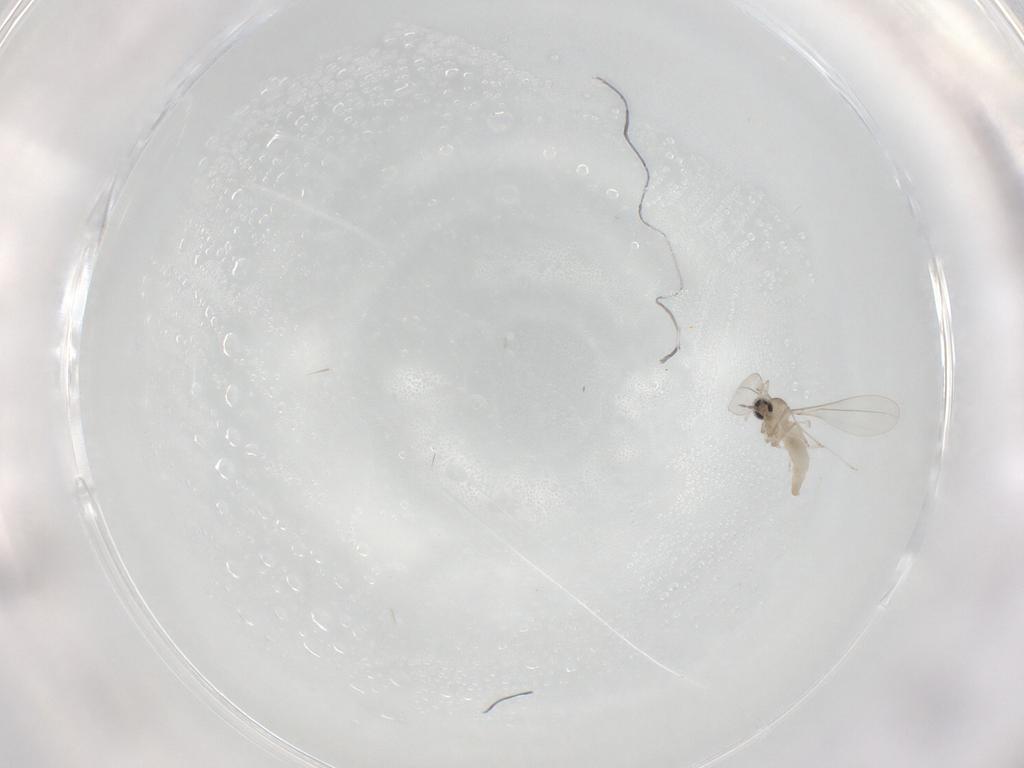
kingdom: Animalia
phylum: Arthropoda
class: Insecta
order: Diptera
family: Cecidomyiidae
